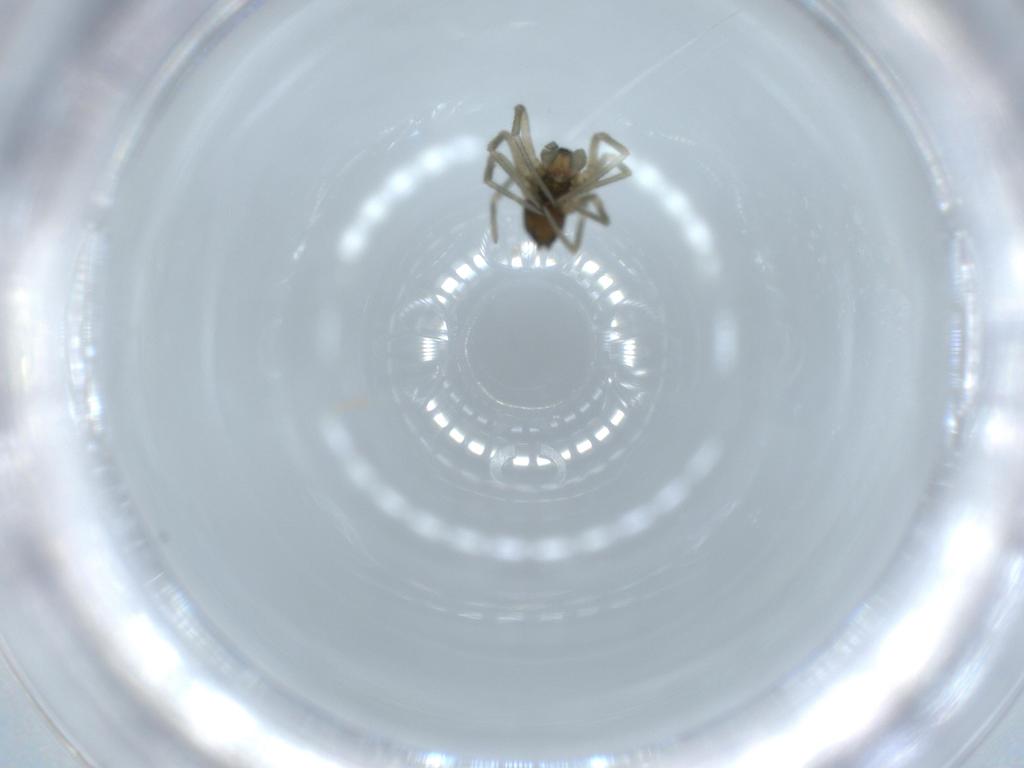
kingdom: Animalia
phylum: Arthropoda
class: Arachnida
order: Araneae
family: Linyphiidae
